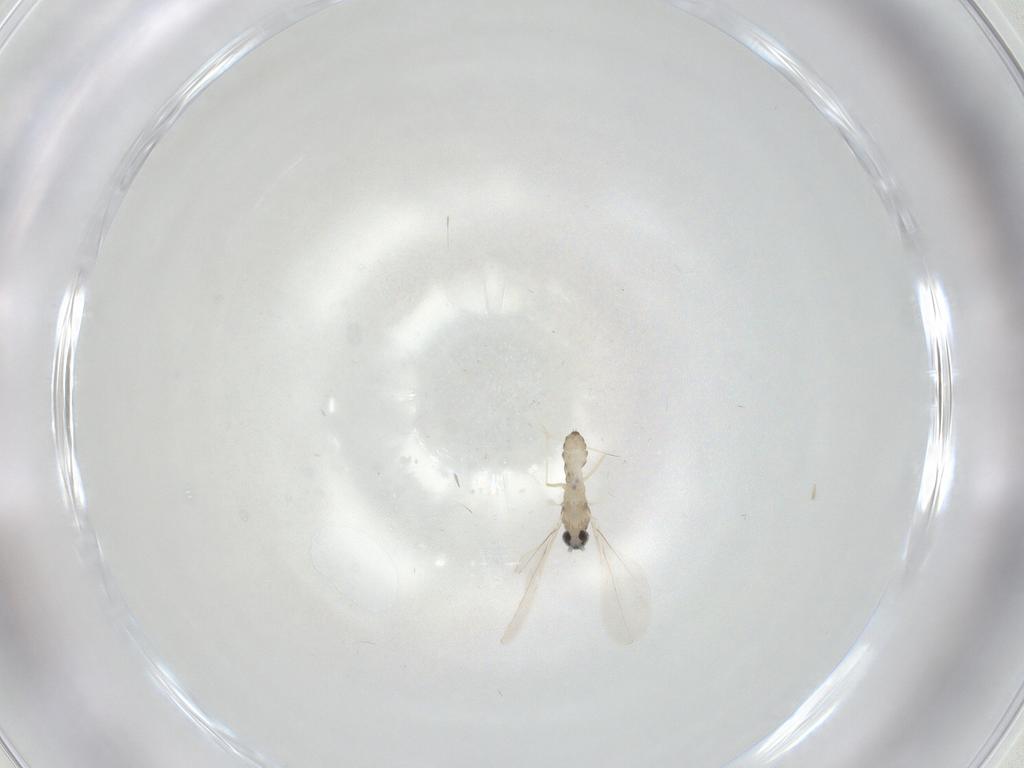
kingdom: Animalia
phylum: Arthropoda
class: Insecta
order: Diptera
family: Cecidomyiidae
